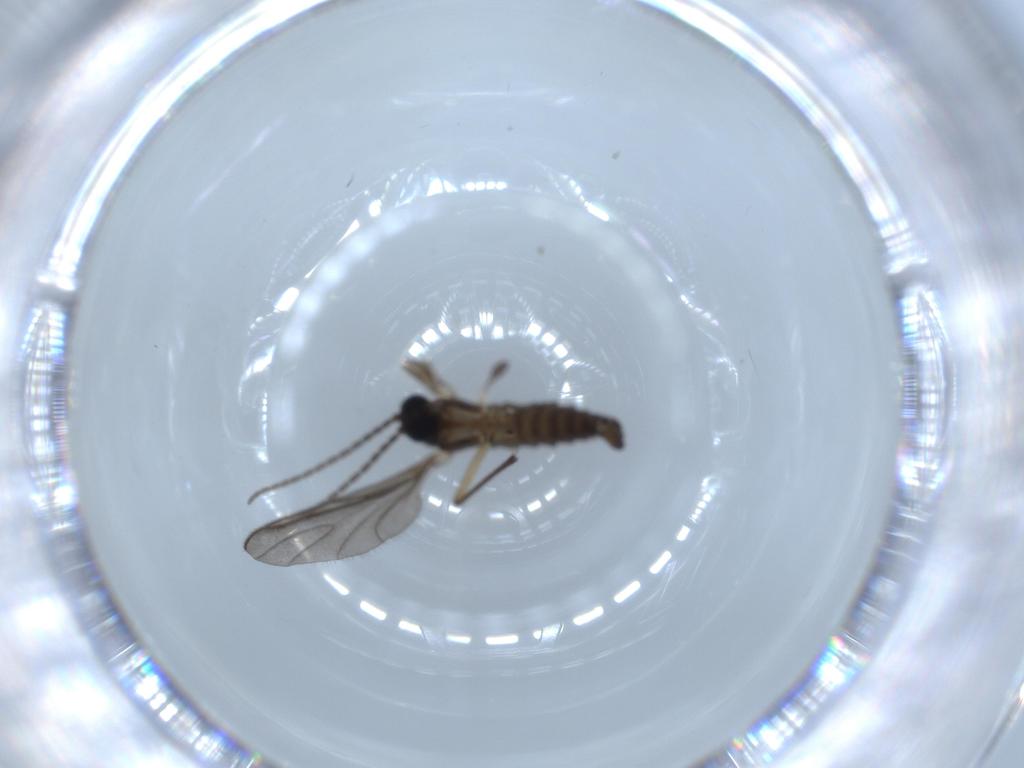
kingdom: Animalia
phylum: Arthropoda
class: Insecta
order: Diptera
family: Sciaridae
